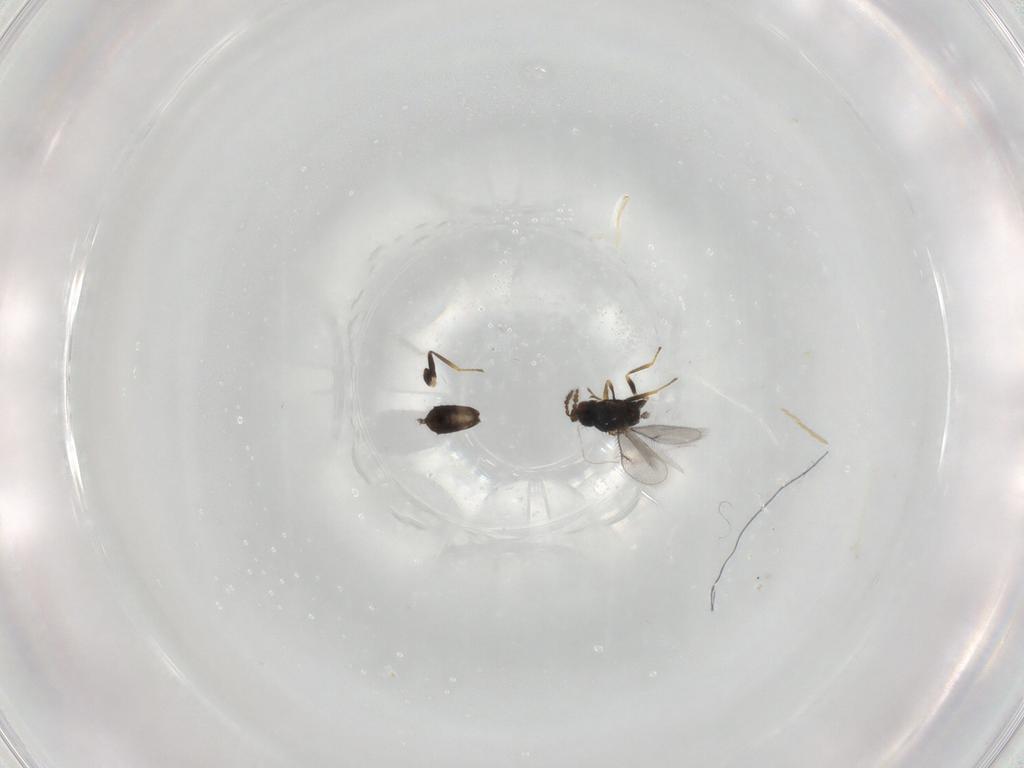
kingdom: Animalia
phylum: Arthropoda
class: Insecta
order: Hymenoptera
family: Eulophidae
